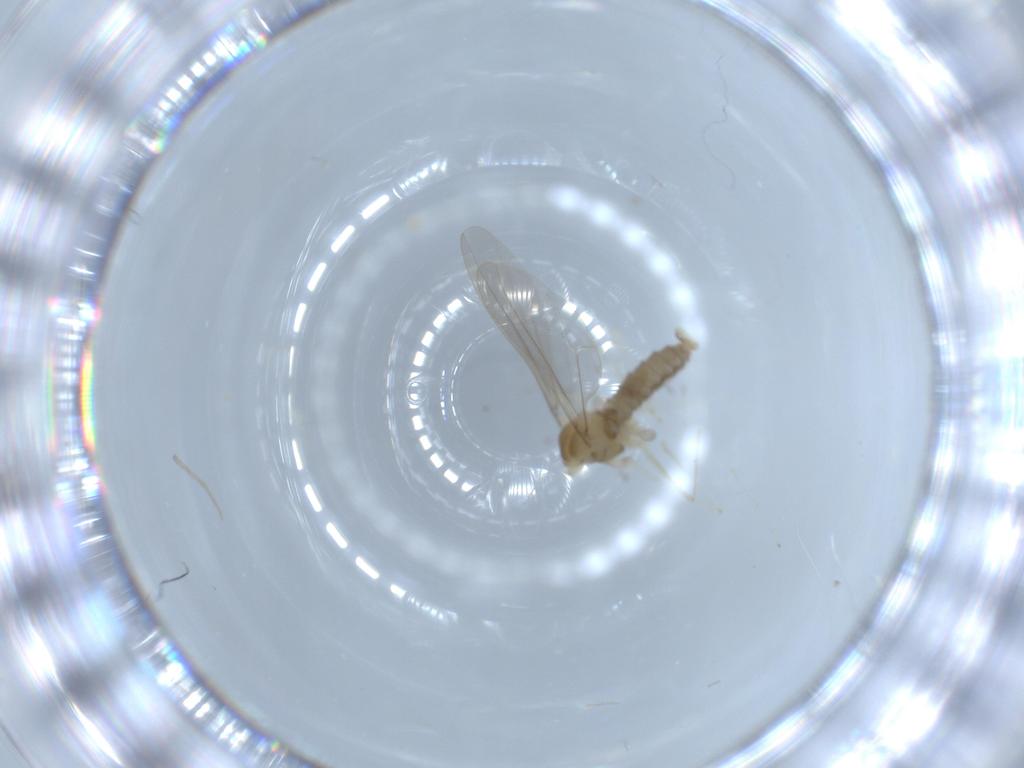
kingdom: Animalia
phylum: Arthropoda
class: Insecta
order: Diptera
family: Cecidomyiidae
